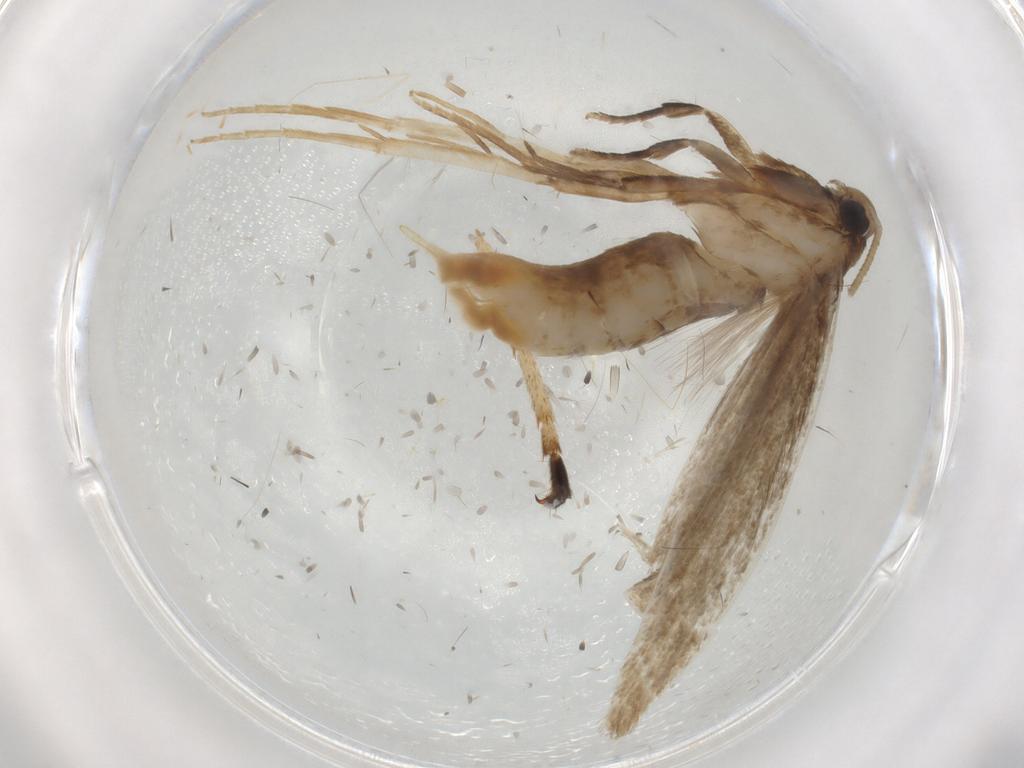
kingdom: Animalia
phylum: Arthropoda
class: Insecta
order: Lepidoptera
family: Coleophoridae
